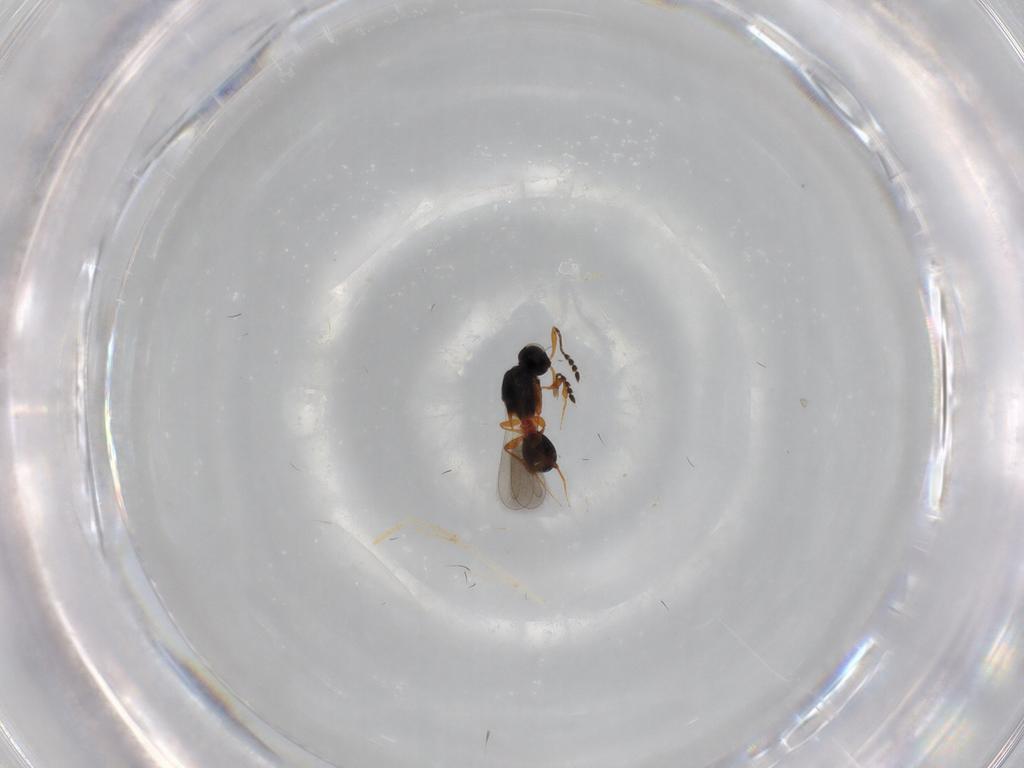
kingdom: Animalia
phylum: Arthropoda
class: Insecta
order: Hymenoptera
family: Platygastridae
